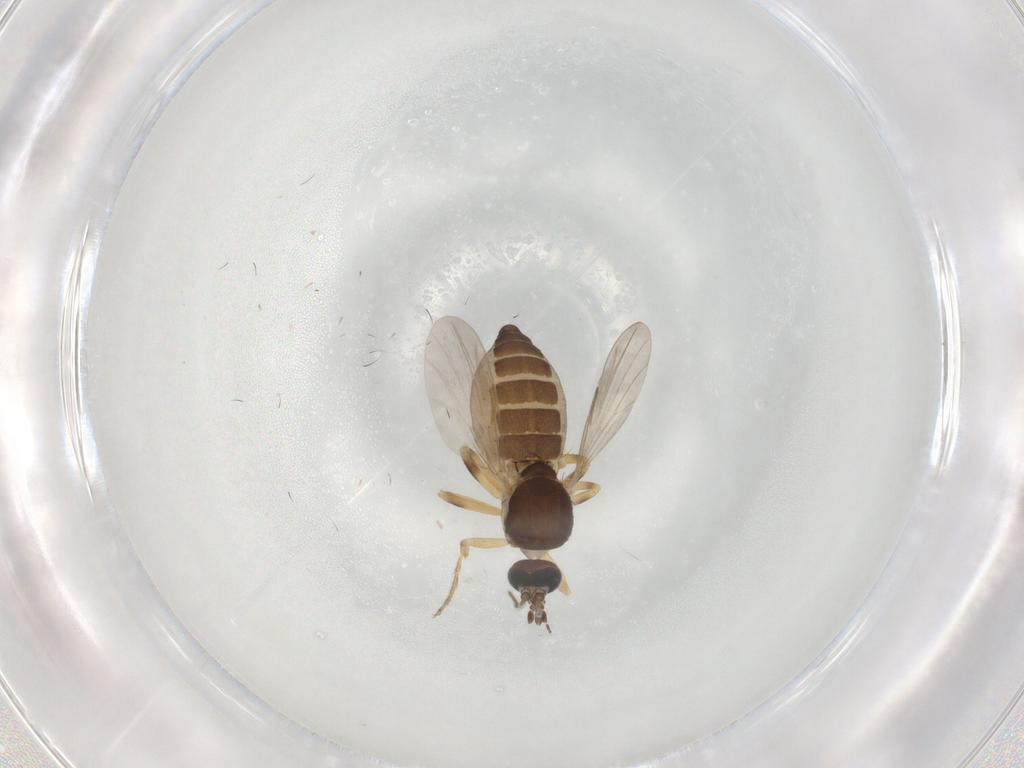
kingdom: Animalia
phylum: Arthropoda
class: Insecta
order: Diptera
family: Ceratopogonidae
